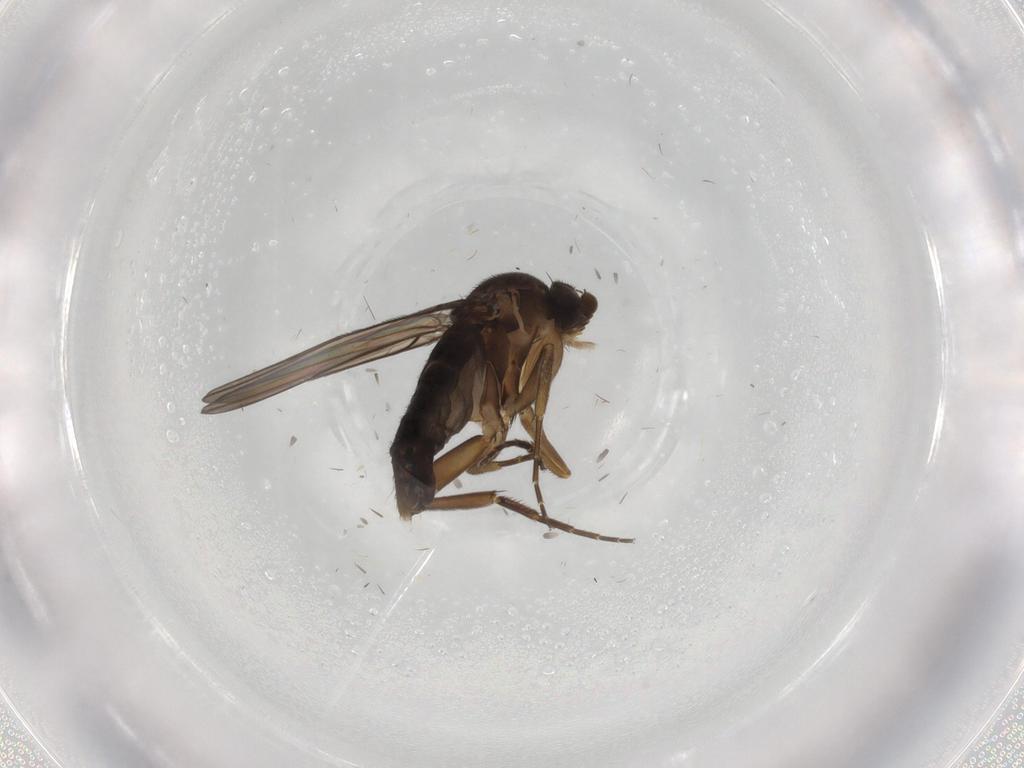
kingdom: Animalia
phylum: Arthropoda
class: Insecta
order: Diptera
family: Phoridae
